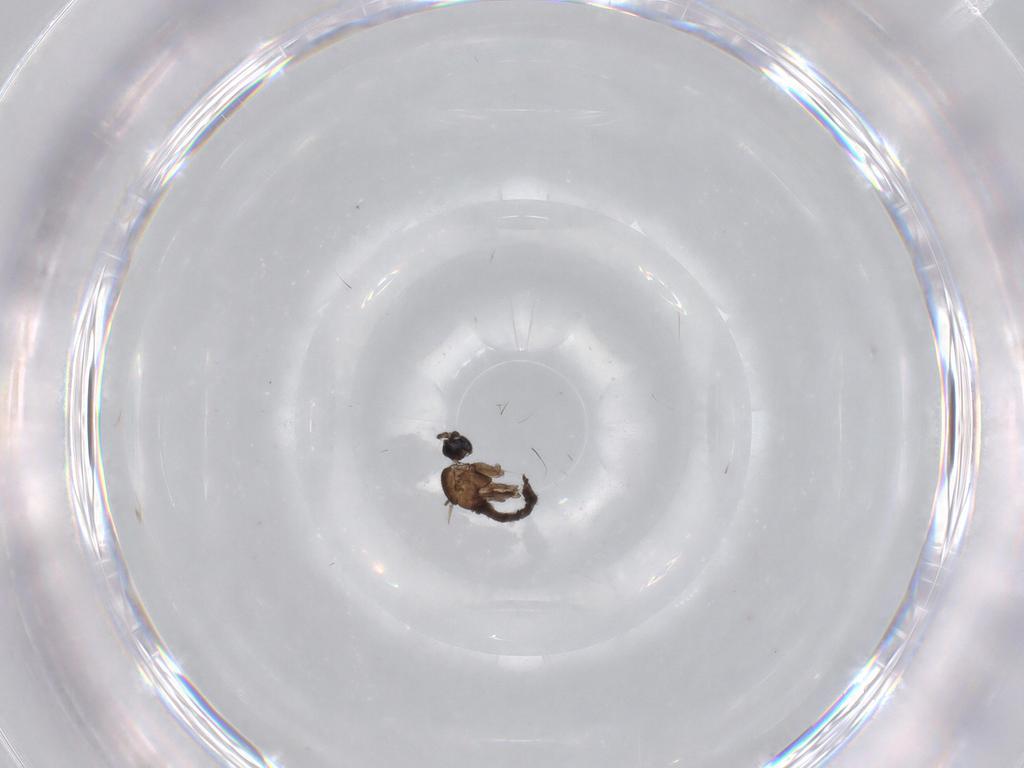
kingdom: Animalia
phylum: Arthropoda
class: Insecta
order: Diptera
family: Sciaridae
